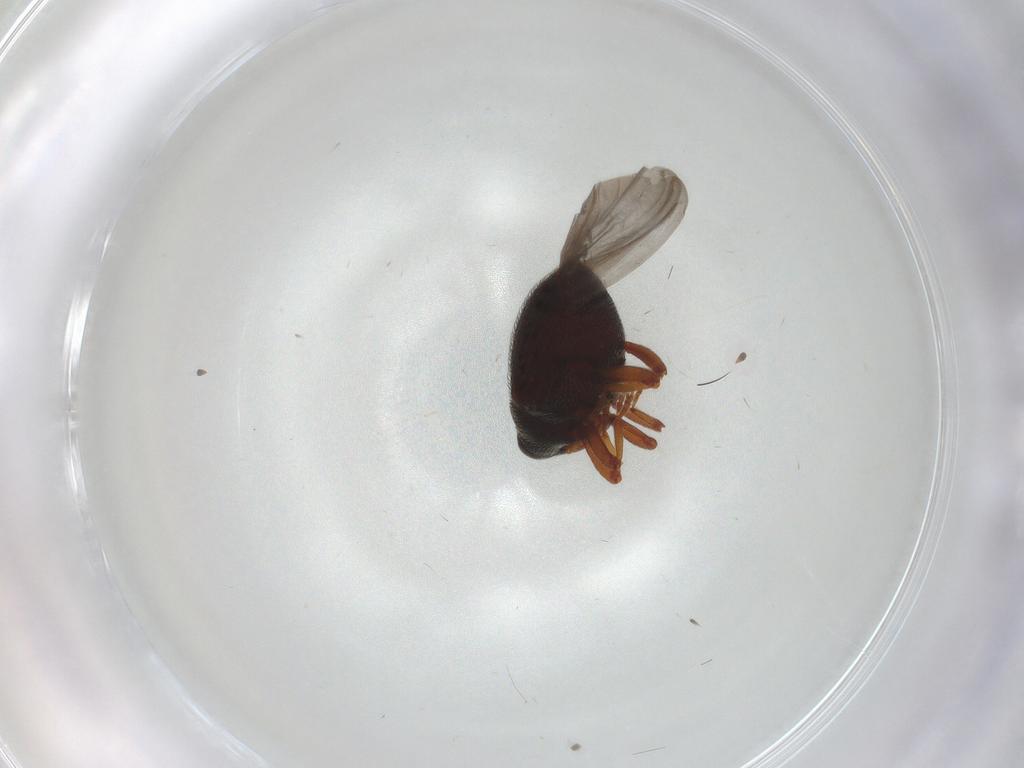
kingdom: Animalia
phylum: Arthropoda
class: Insecta
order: Coleoptera
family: Curculionidae
